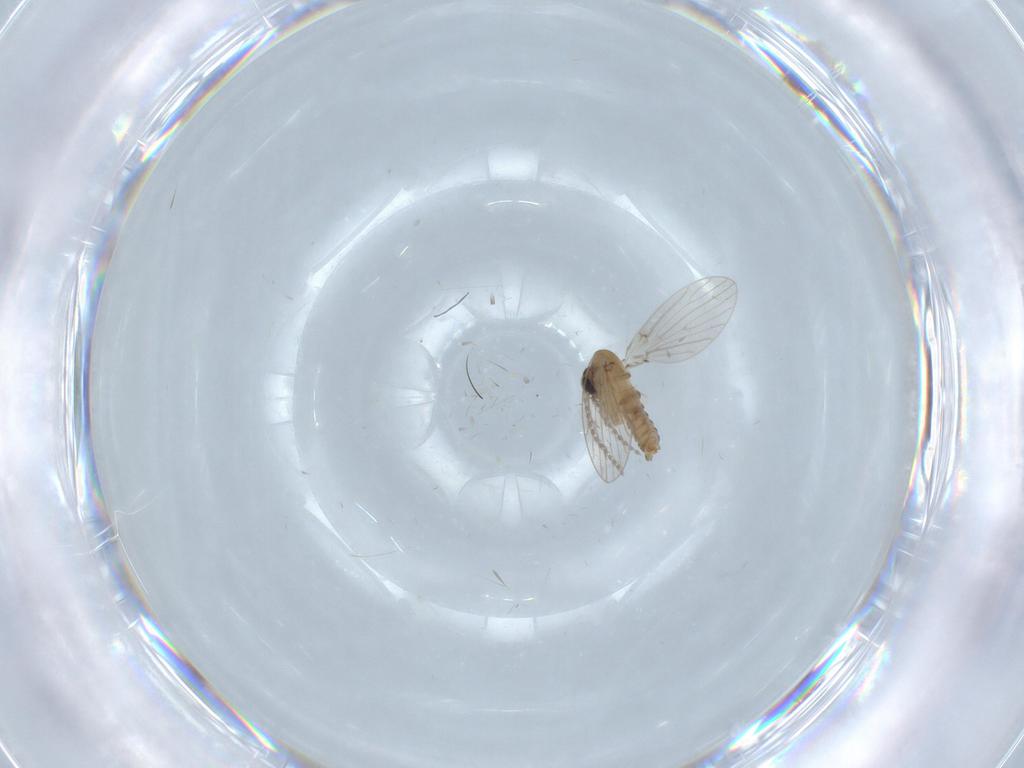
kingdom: Animalia
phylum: Arthropoda
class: Insecta
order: Diptera
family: Psychodidae
